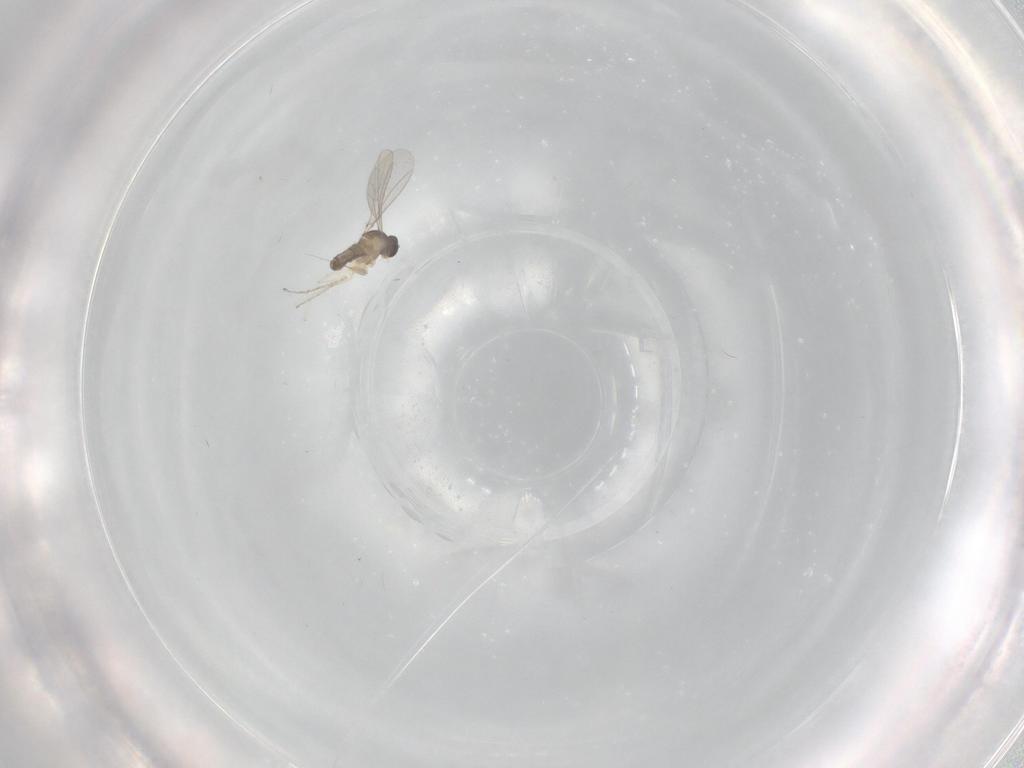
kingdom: Animalia
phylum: Arthropoda
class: Insecta
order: Diptera
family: Cecidomyiidae
